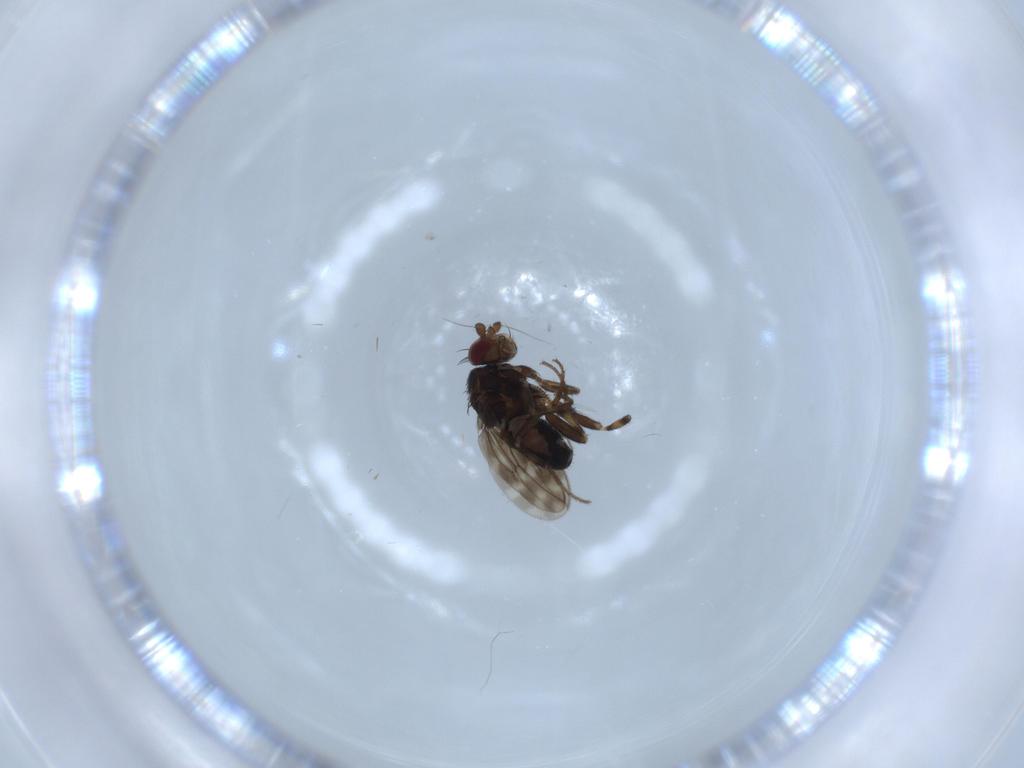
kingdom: Animalia
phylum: Arthropoda
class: Insecta
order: Diptera
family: Sphaeroceridae
